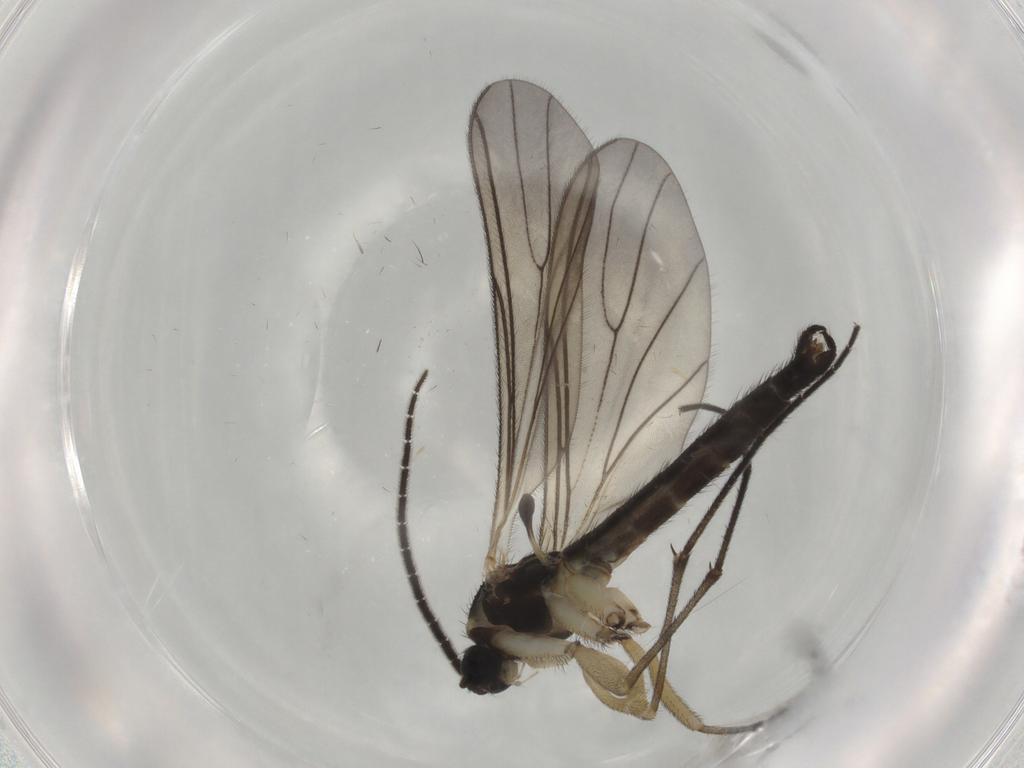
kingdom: Animalia
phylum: Arthropoda
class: Insecta
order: Diptera
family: Sciaridae
